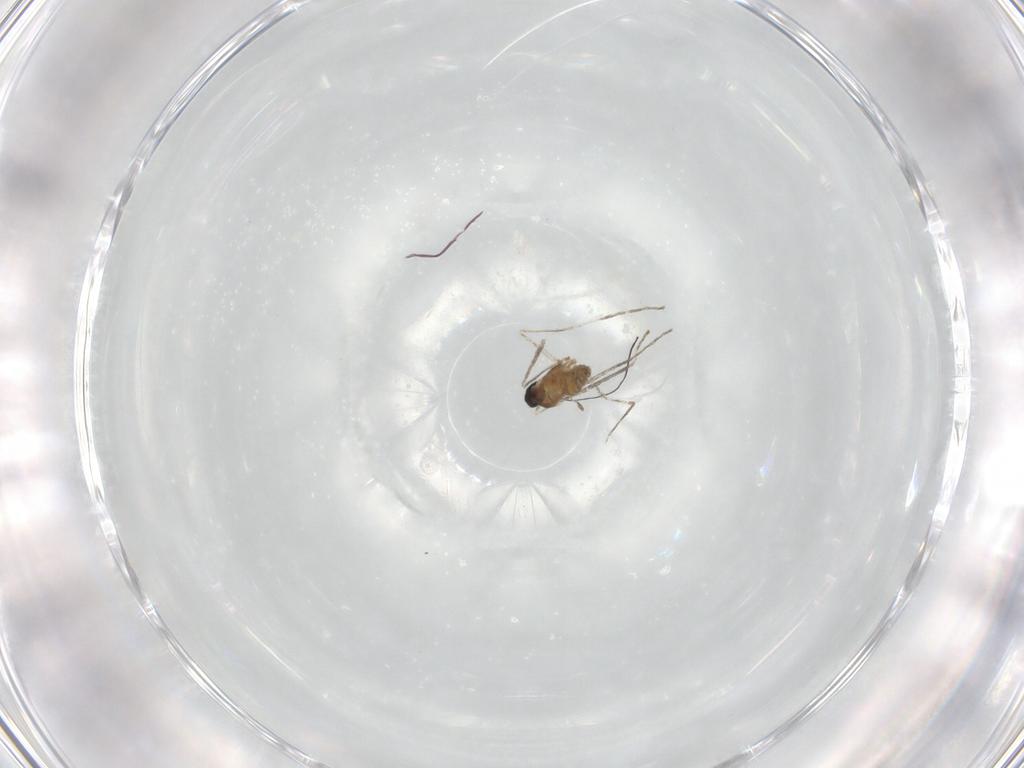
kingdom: Animalia
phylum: Arthropoda
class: Insecta
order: Diptera
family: Cecidomyiidae
